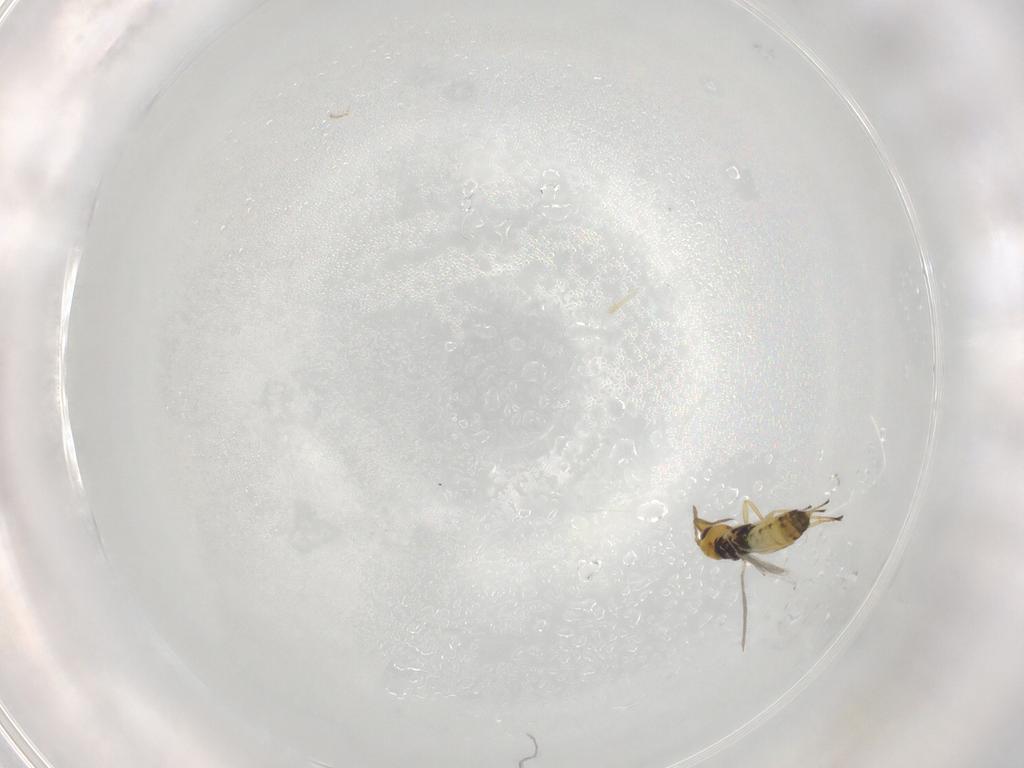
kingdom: Animalia
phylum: Arthropoda
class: Insecta
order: Hymenoptera
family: Eulophidae
